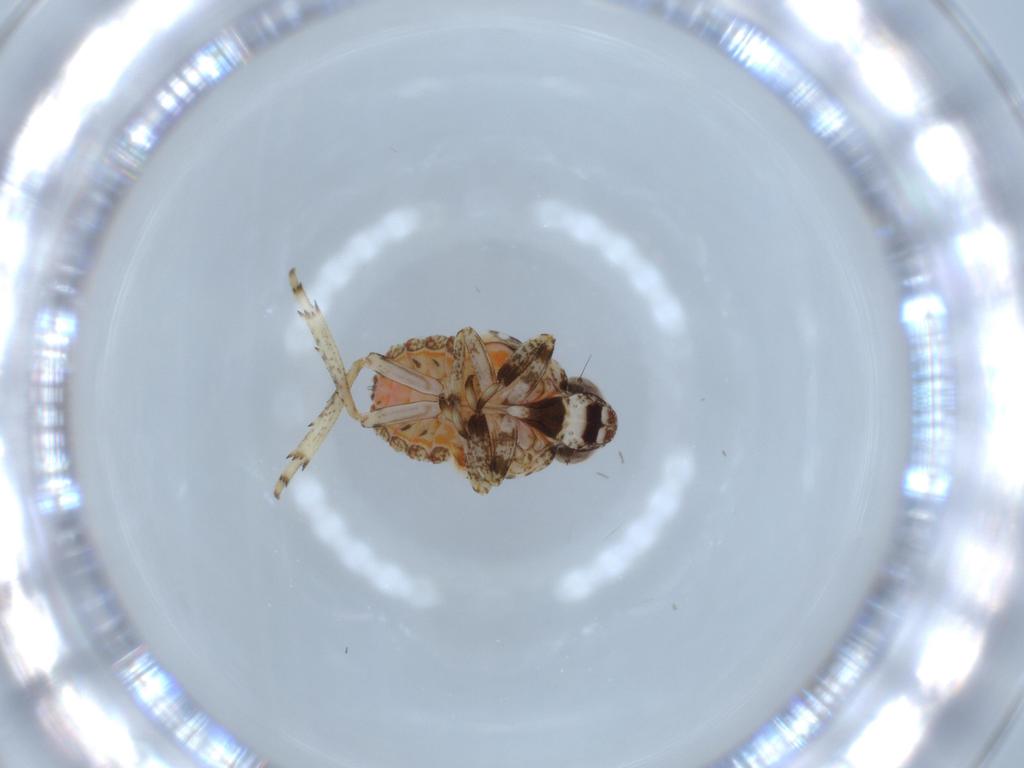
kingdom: Animalia
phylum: Arthropoda
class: Insecta
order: Hemiptera
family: Issidae
